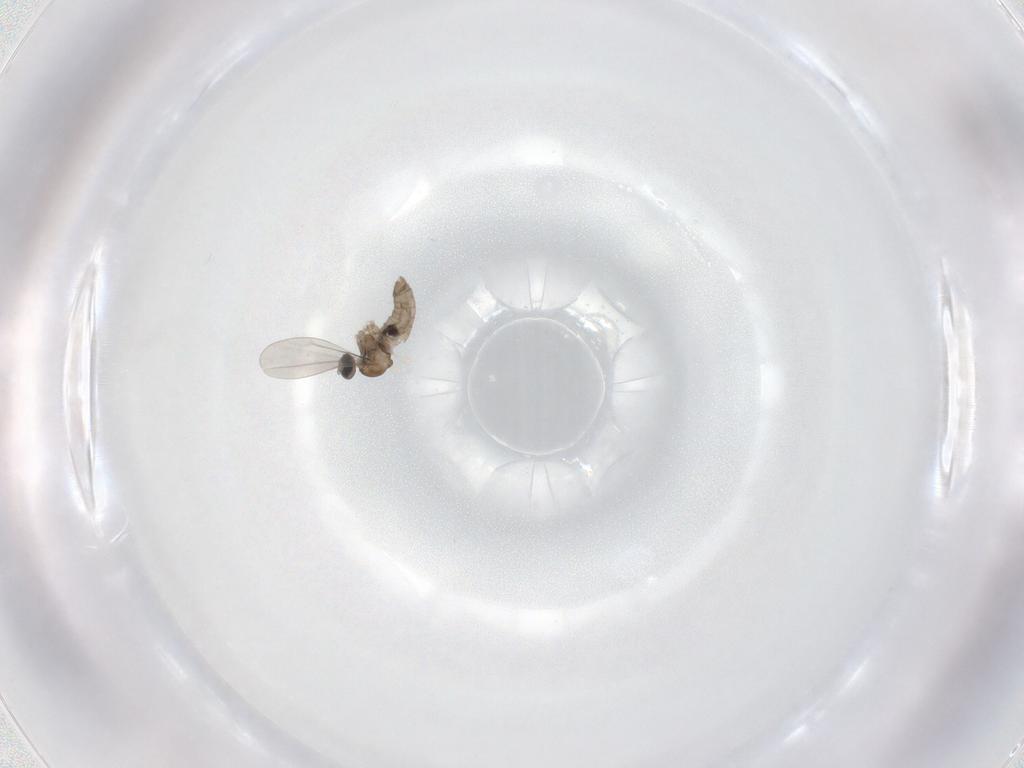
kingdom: Animalia
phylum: Arthropoda
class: Insecta
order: Diptera
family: Cecidomyiidae
